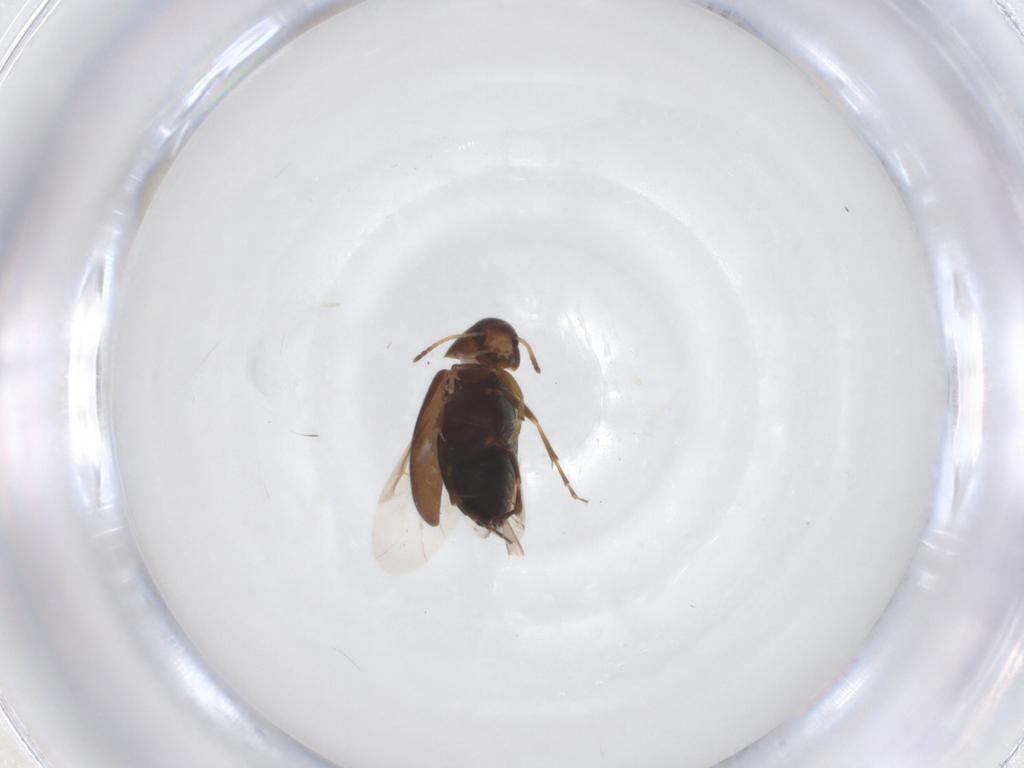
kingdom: Animalia
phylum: Arthropoda
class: Insecta
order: Coleoptera
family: Scraptiidae
